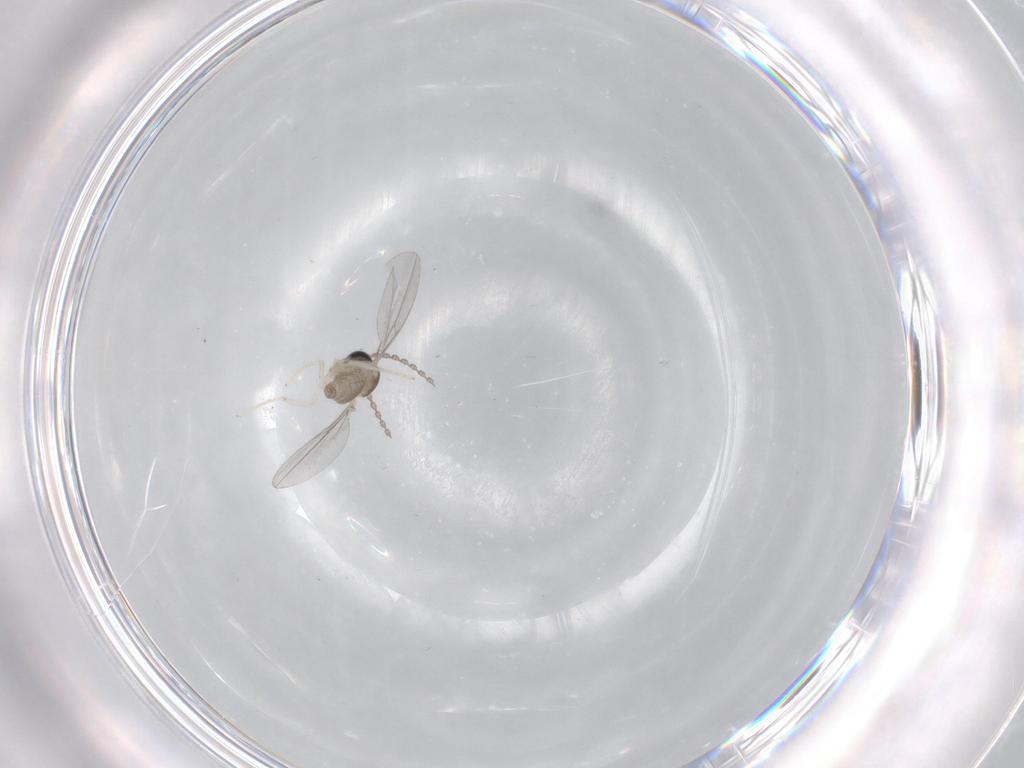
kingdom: Animalia
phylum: Arthropoda
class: Insecta
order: Diptera
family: Cecidomyiidae
